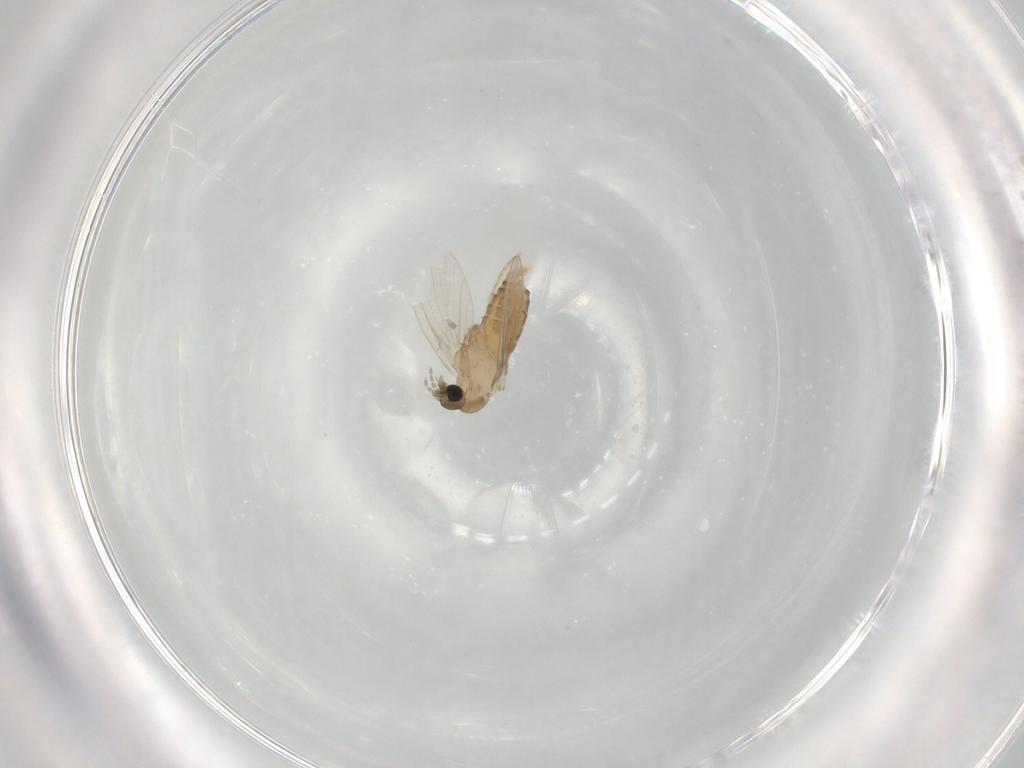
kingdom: Animalia
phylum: Arthropoda
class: Insecta
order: Diptera
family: Psychodidae
